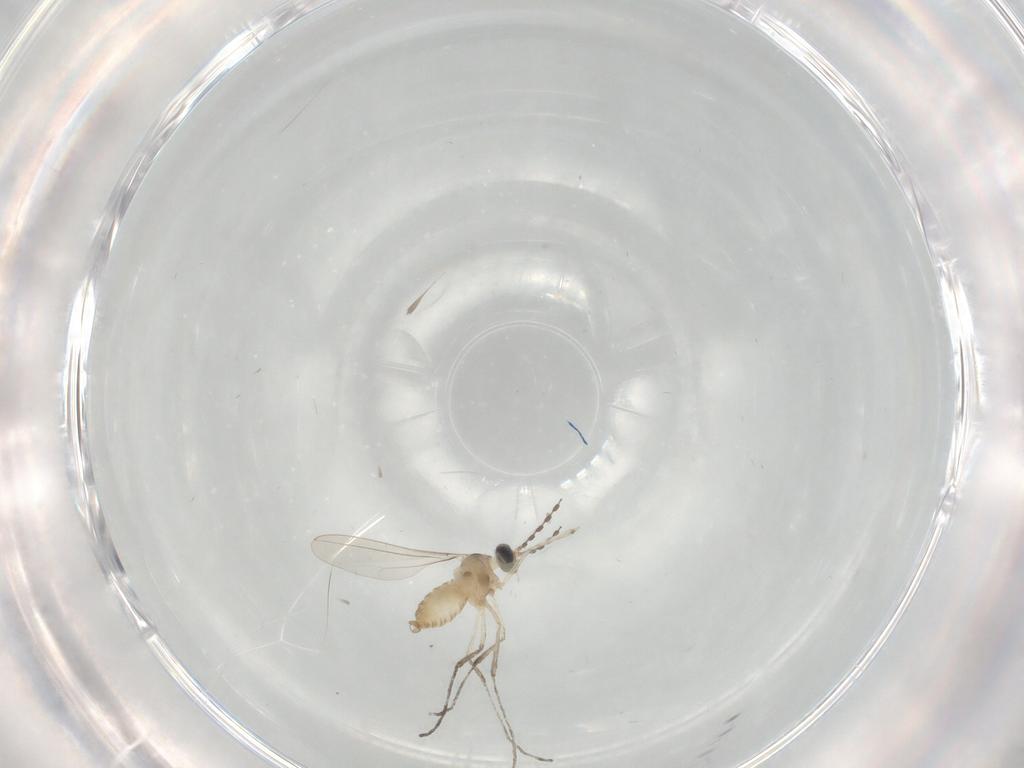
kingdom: Animalia
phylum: Arthropoda
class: Insecta
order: Diptera
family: Cecidomyiidae
